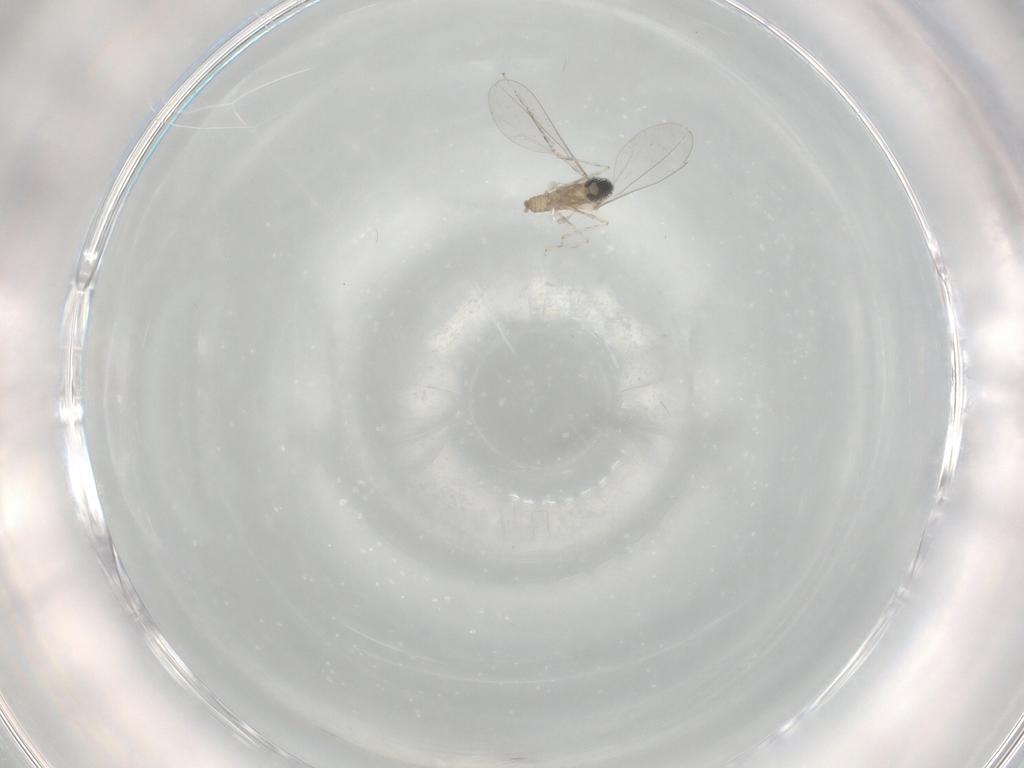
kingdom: Animalia
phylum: Arthropoda
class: Insecta
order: Diptera
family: Cecidomyiidae
